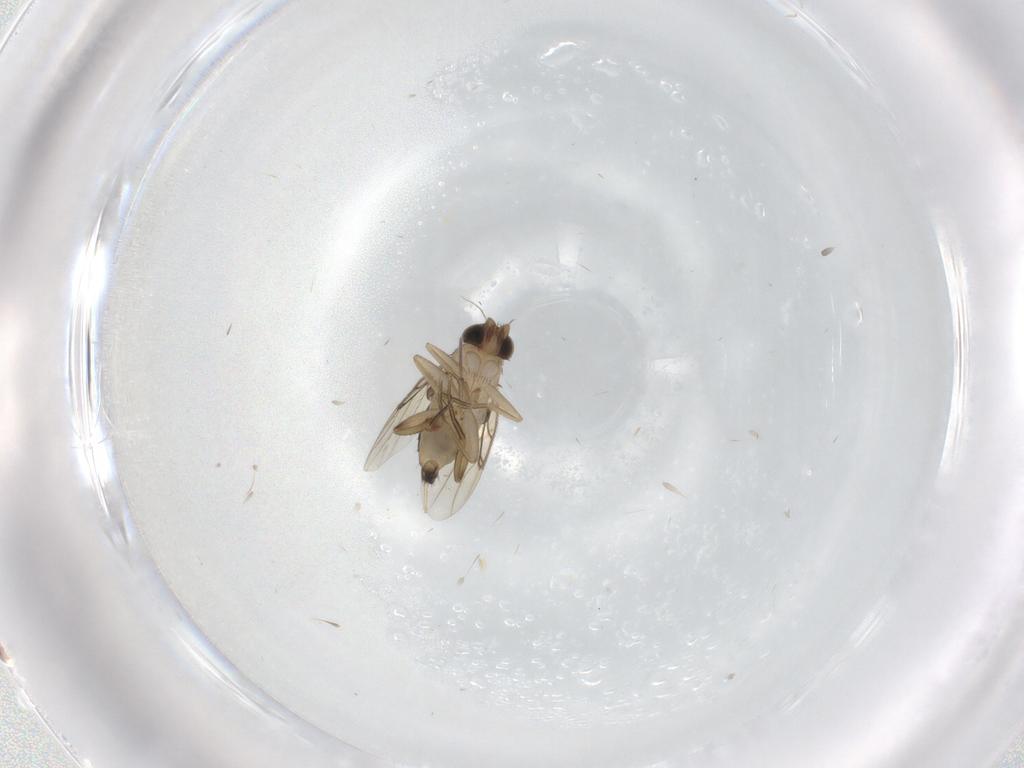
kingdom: Animalia
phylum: Arthropoda
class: Insecta
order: Diptera
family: Phoridae
